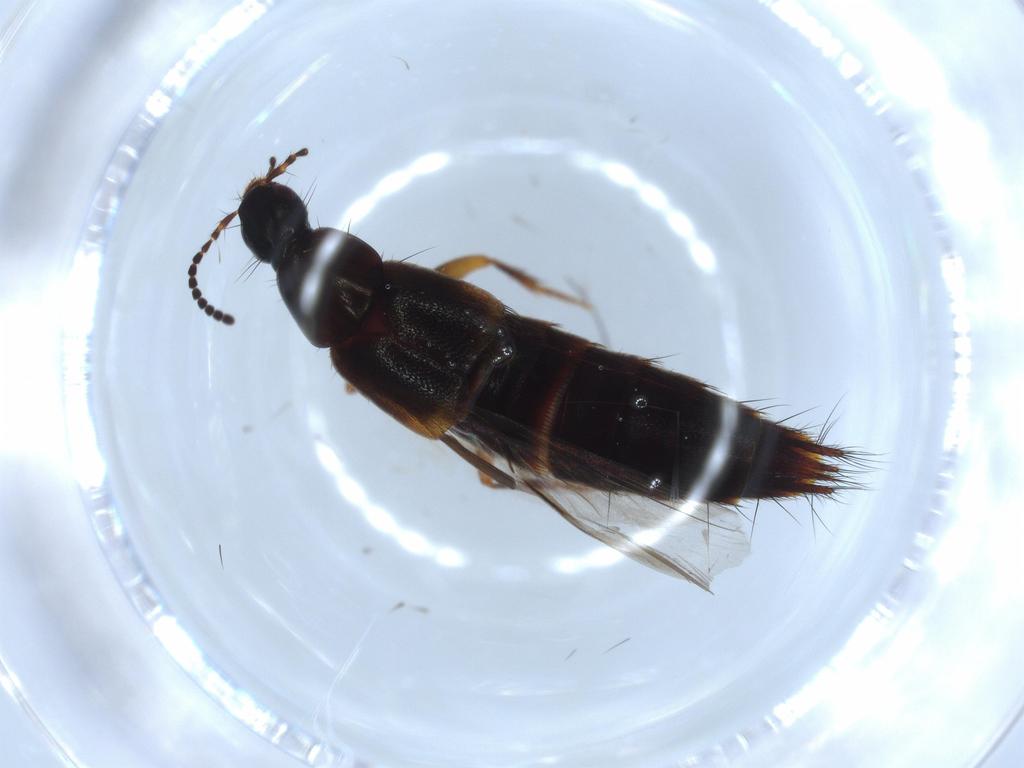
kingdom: Animalia
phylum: Arthropoda
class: Insecta
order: Coleoptera
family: Staphylinidae
